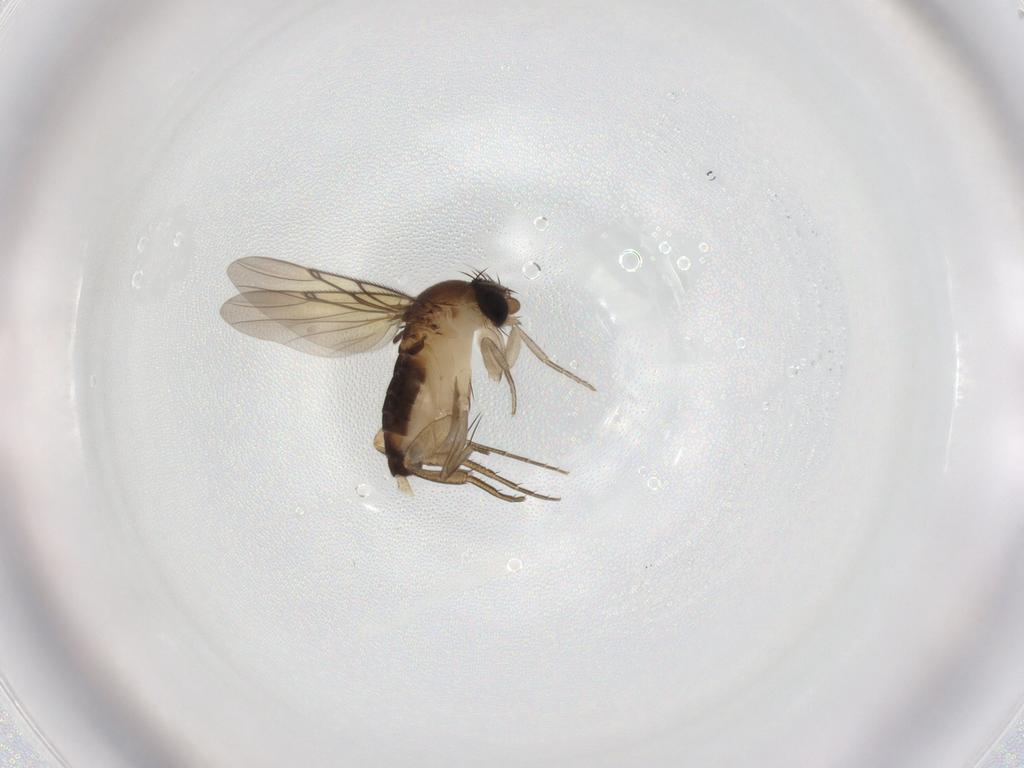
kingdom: Animalia
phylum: Arthropoda
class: Insecta
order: Diptera
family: Phoridae
